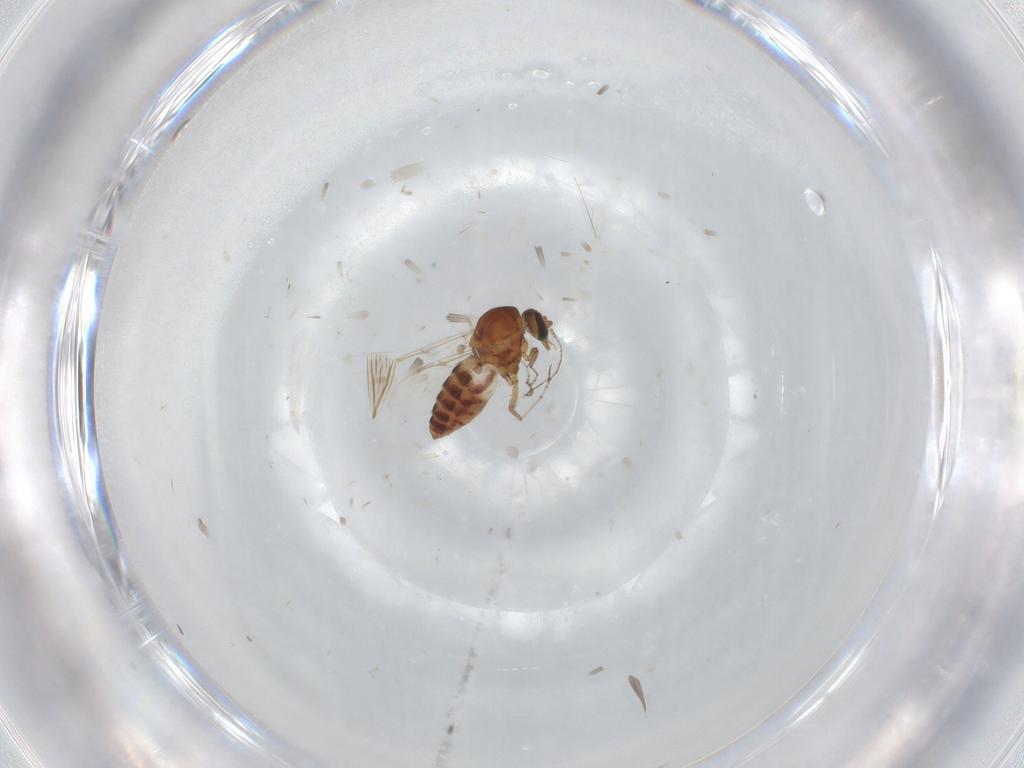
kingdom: Animalia
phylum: Arthropoda
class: Insecta
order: Diptera
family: Ceratopogonidae
